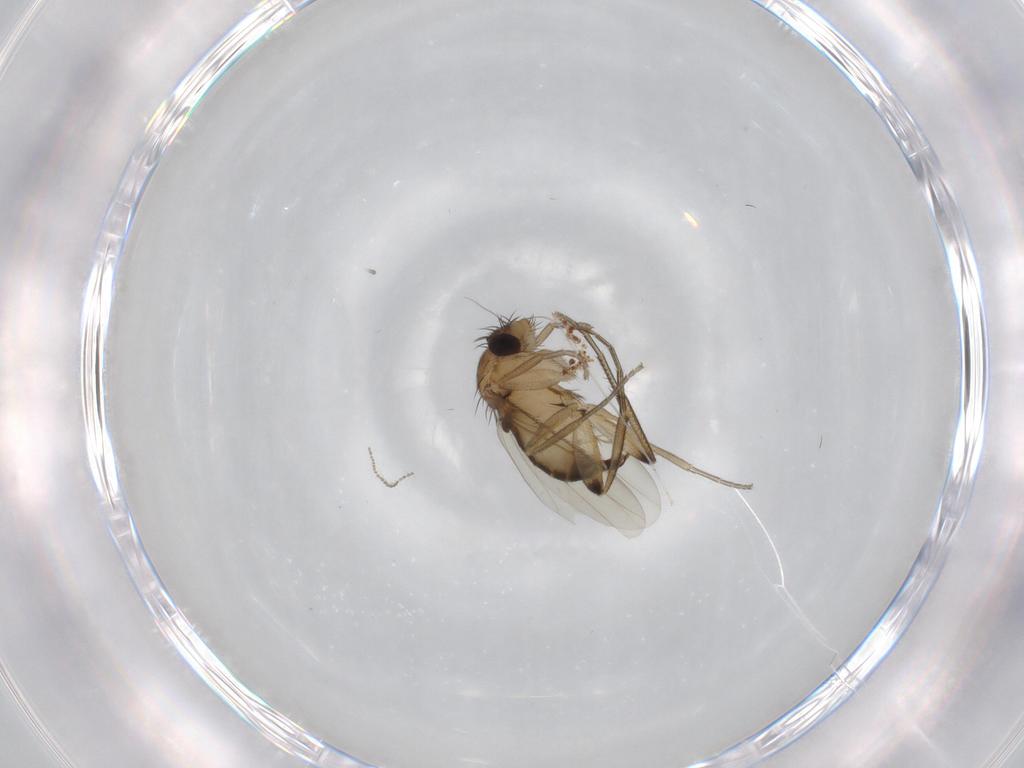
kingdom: Animalia
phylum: Arthropoda
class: Insecta
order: Diptera
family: Phoridae
